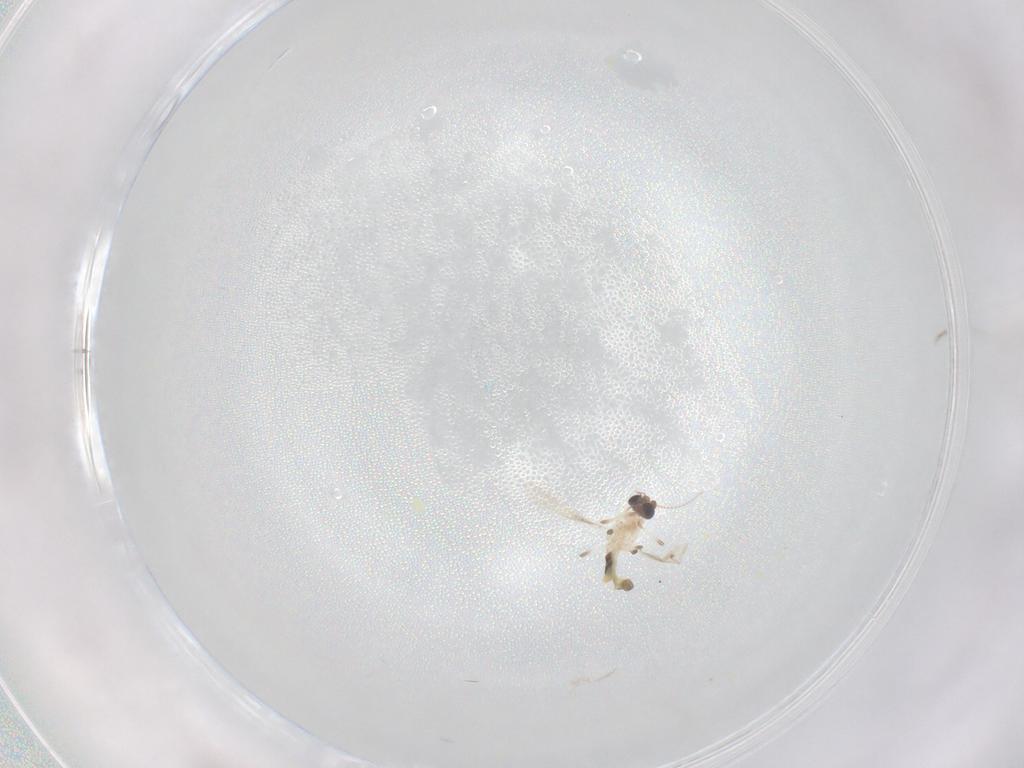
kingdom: Animalia
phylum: Arthropoda
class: Insecta
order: Diptera
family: Chironomidae
